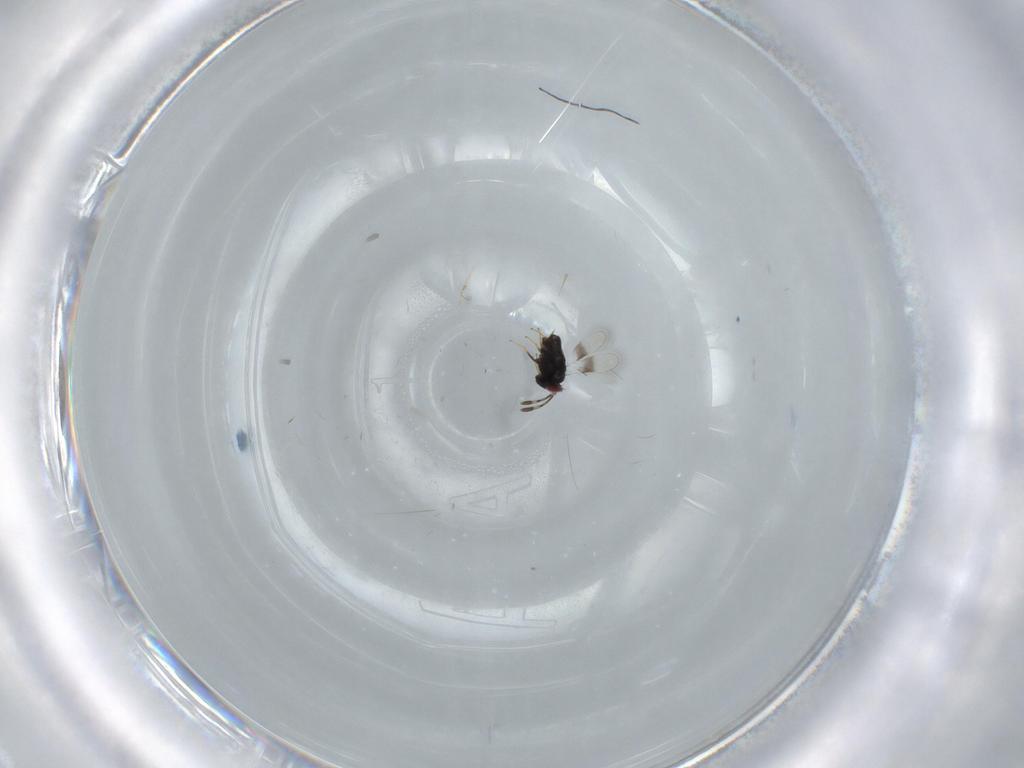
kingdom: Animalia
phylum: Arthropoda
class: Insecta
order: Hymenoptera
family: Azotidae
